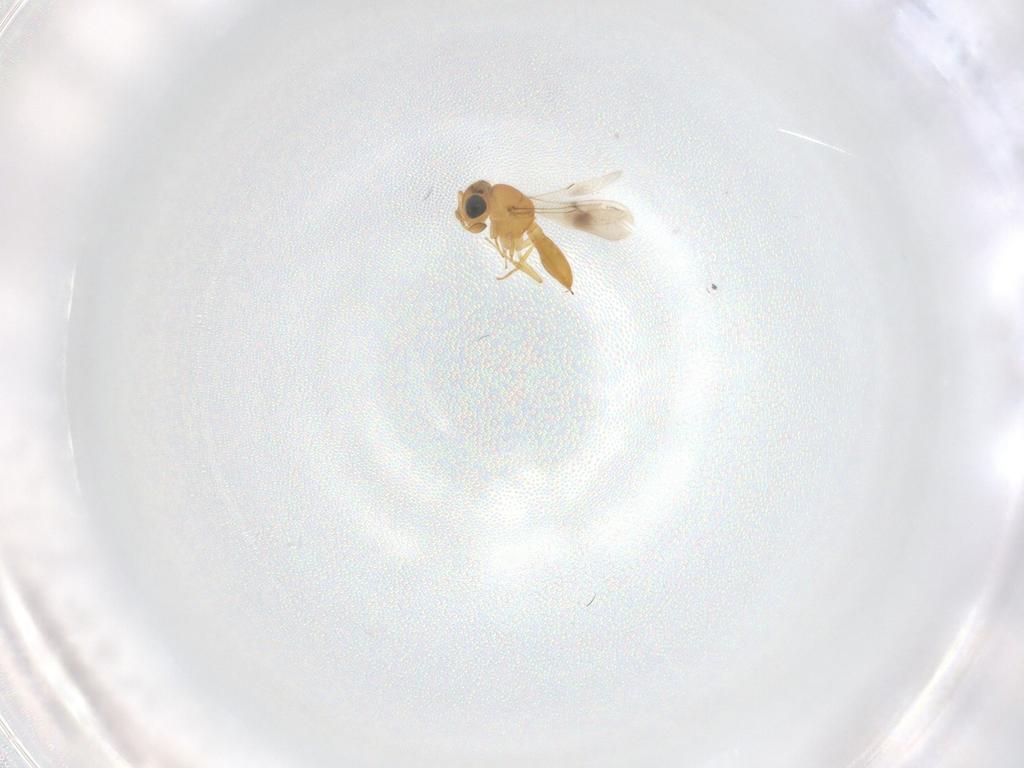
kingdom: Animalia
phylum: Arthropoda
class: Insecta
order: Hymenoptera
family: Scelionidae
